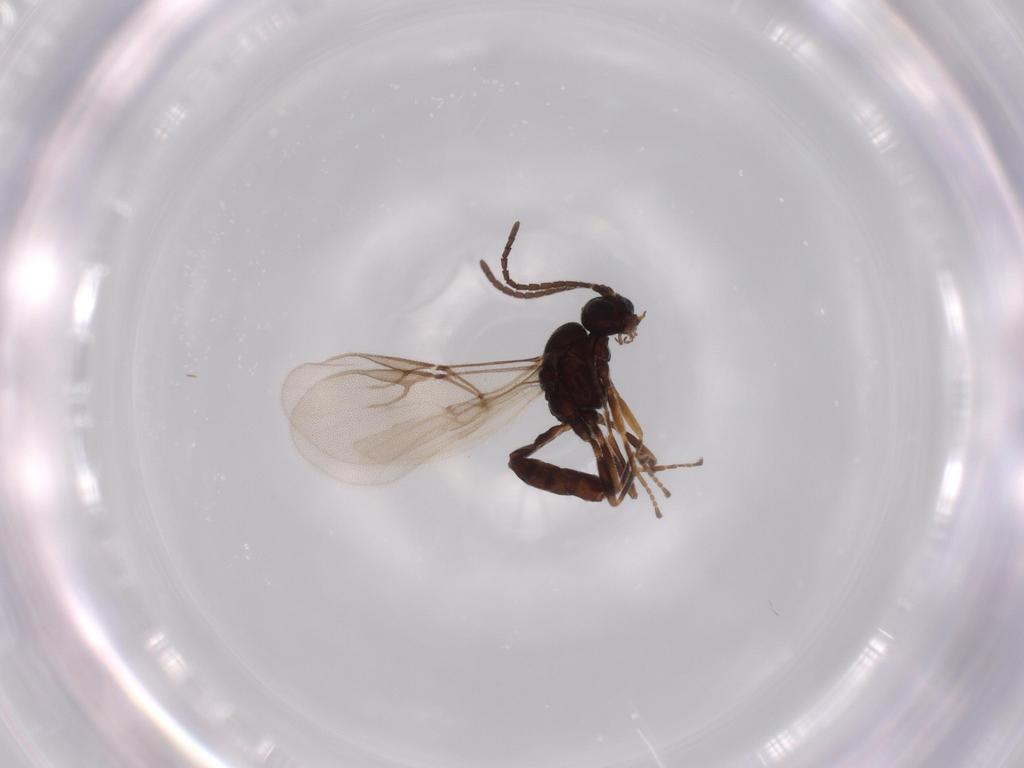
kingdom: Animalia
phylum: Arthropoda
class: Insecta
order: Hymenoptera
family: Braconidae
